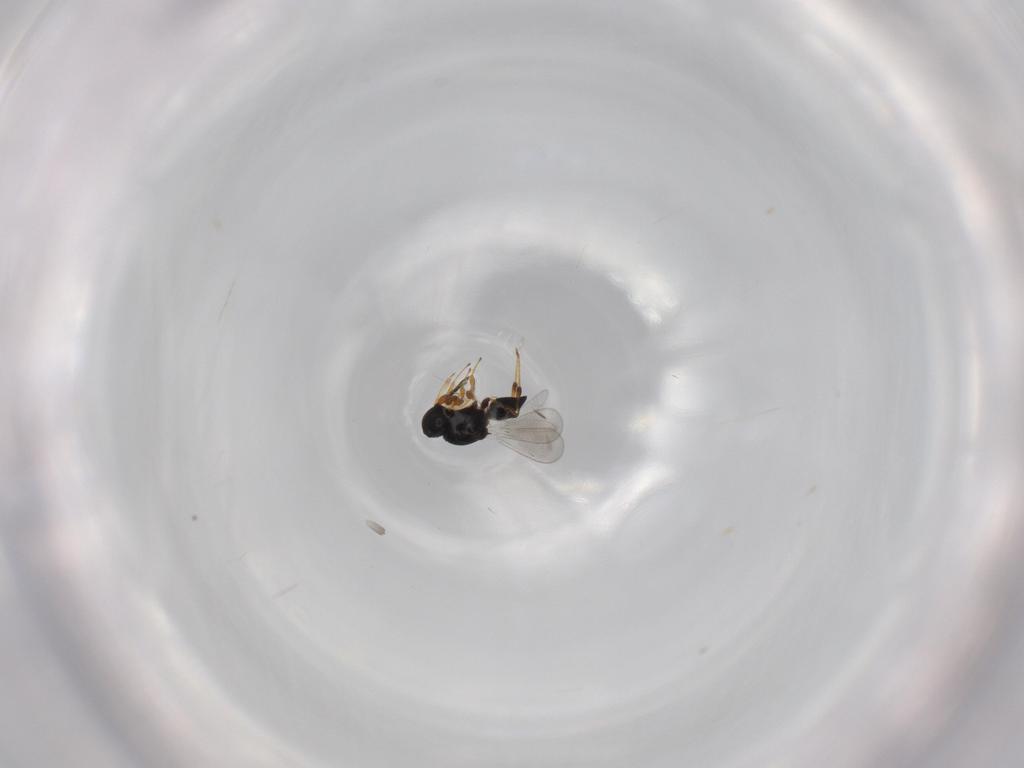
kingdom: Animalia
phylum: Arthropoda
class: Insecta
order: Hymenoptera
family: Platygastridae
